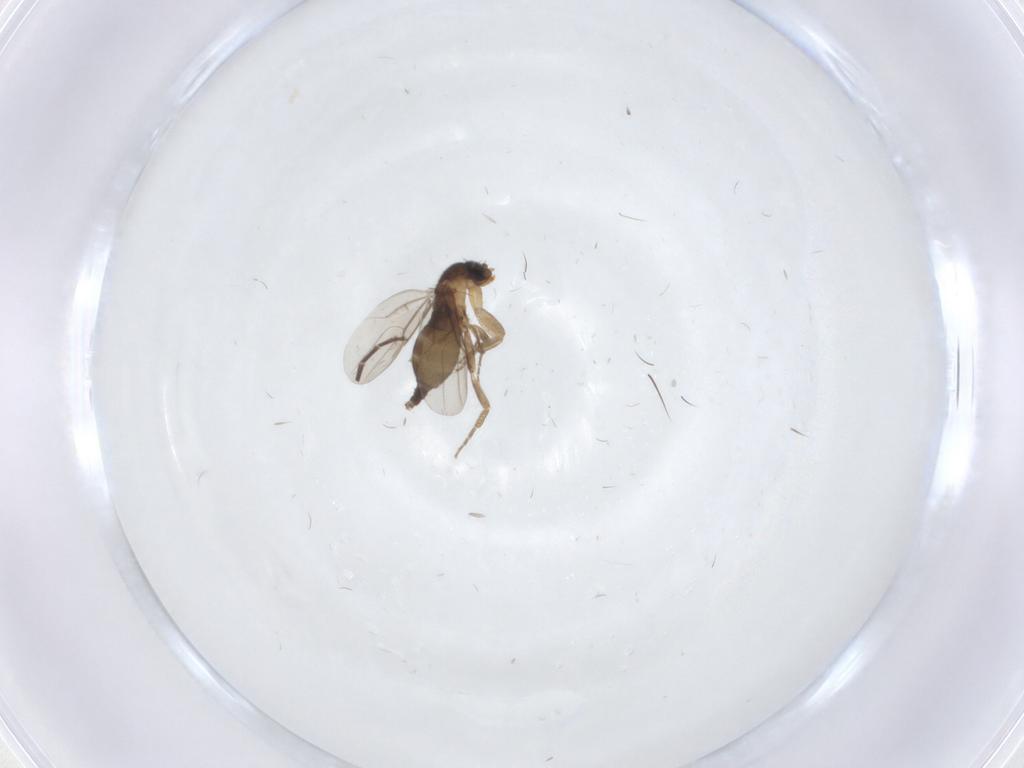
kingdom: Animalia
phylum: Arthropoda
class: Insecta
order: Diptera
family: Phoridae
